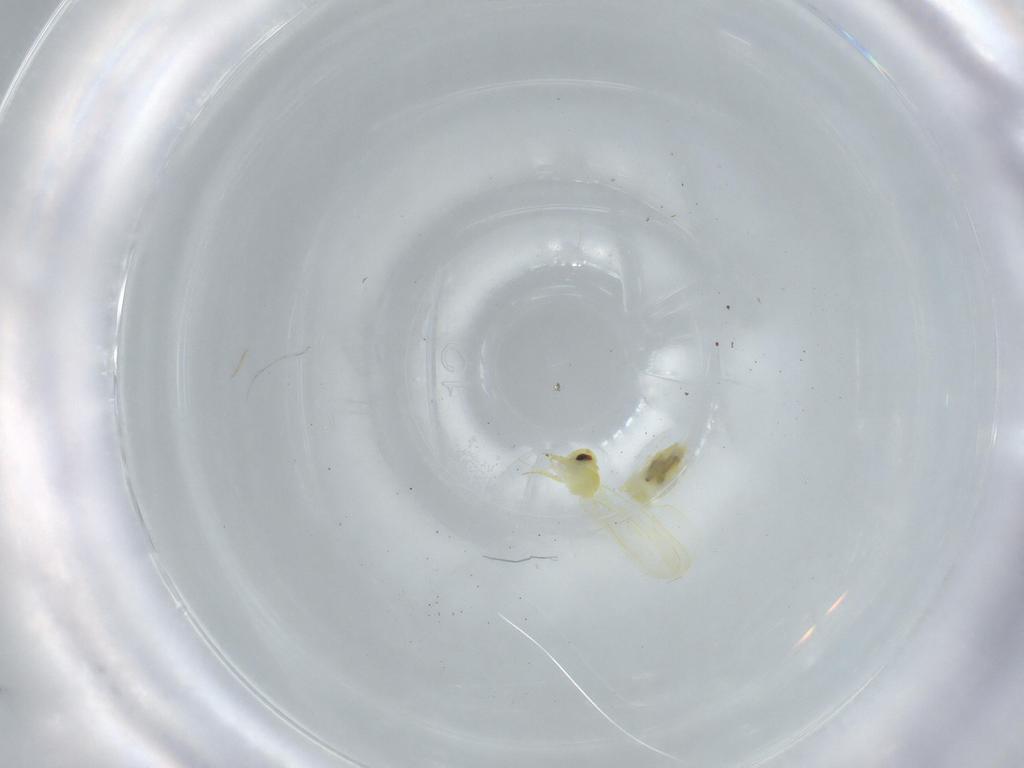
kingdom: Animalia
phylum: Arthropoda
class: Insecta
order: Hemiptera
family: Aleyrodidae
